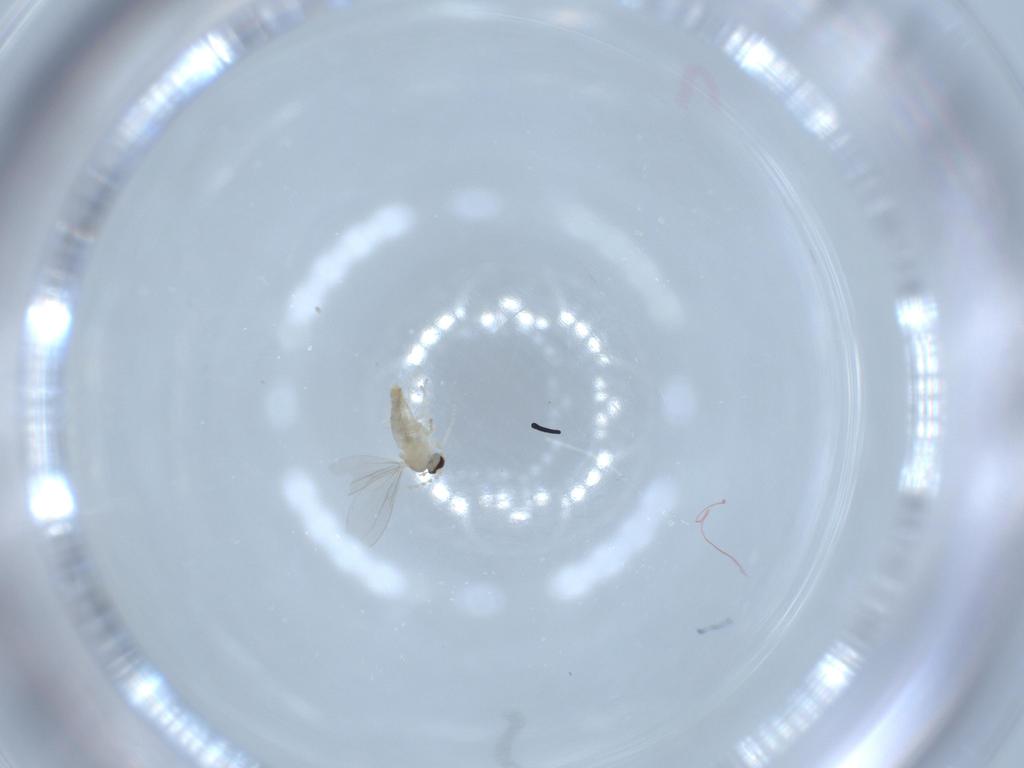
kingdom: Animalia
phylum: Arthropoda
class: Insecta
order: Diptera
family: Cecidomyiidae
